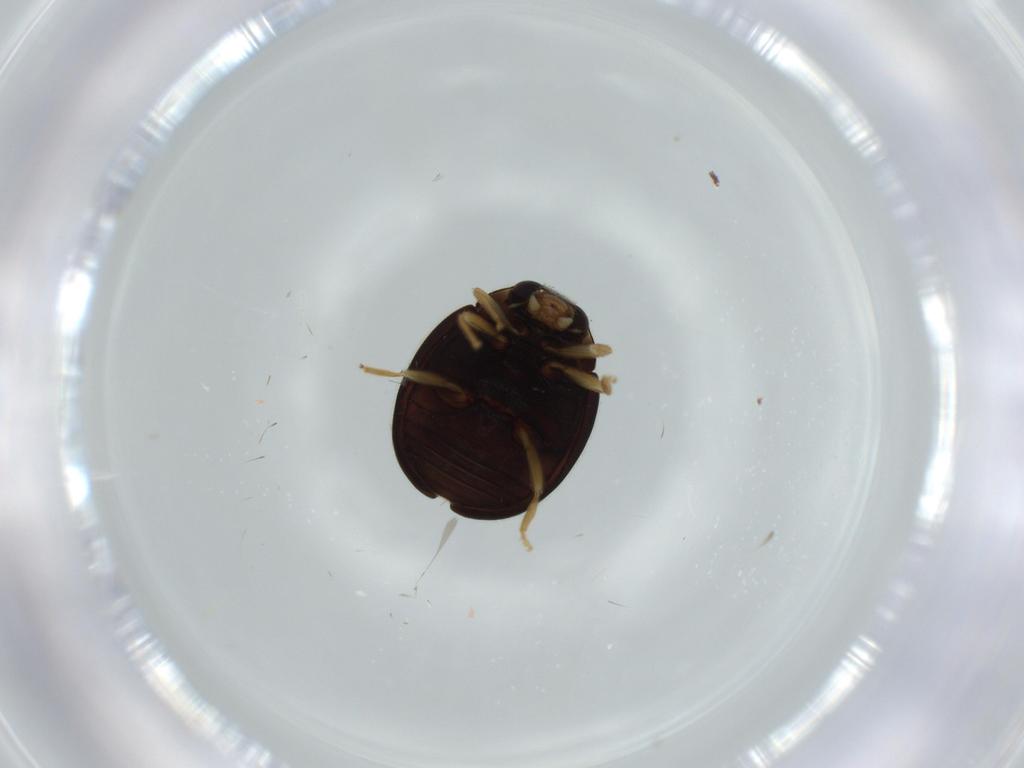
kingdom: Animalia
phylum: Arthropoda
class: Insecta
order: Coleoptera
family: Coccinellidae
